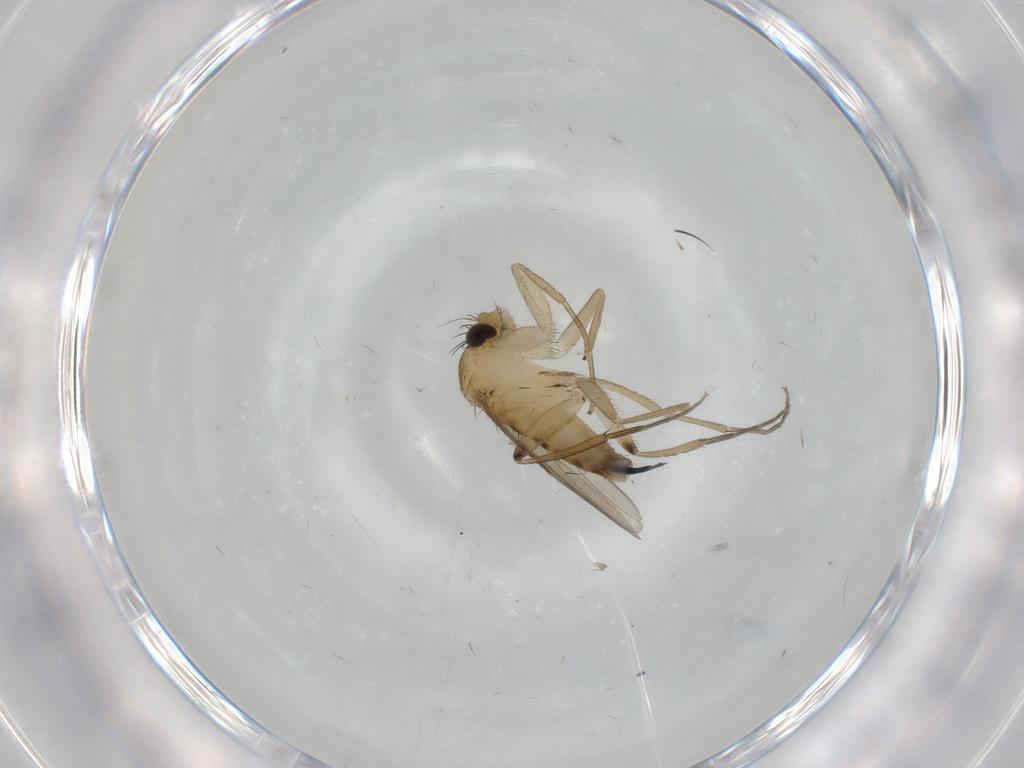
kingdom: Animalia
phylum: Arthropoda
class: Insecta
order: Diptera
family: Phoridae
